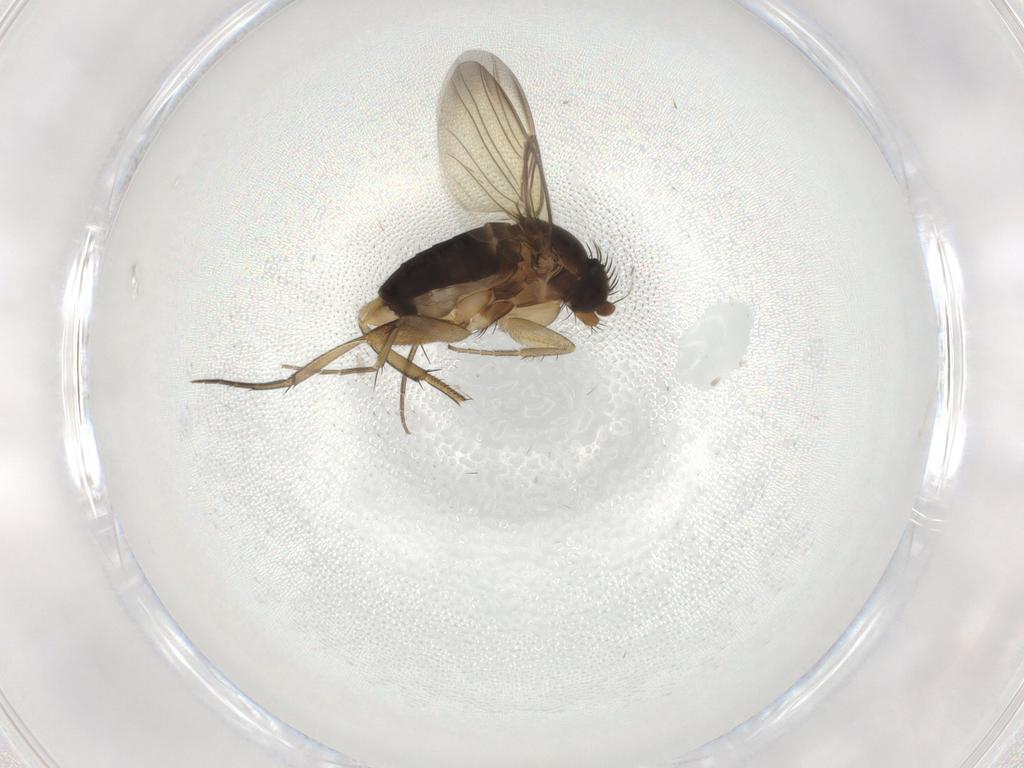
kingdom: Animalia
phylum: Arthropoda
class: Insecta
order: Diptera
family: Phoridae
